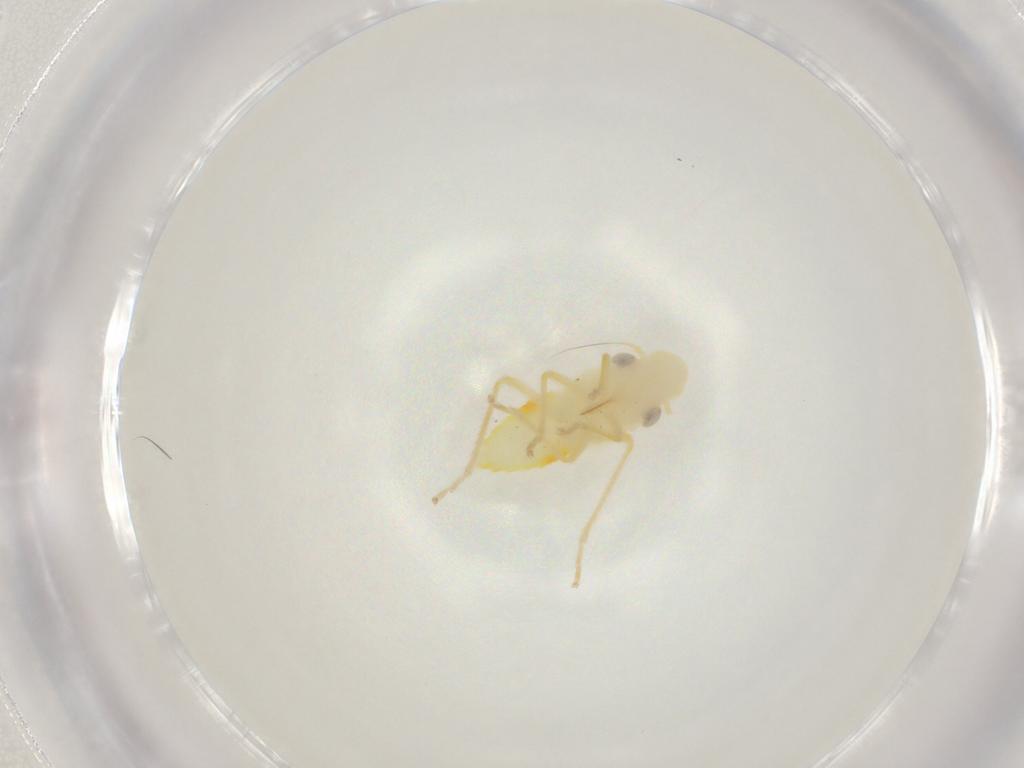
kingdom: Animalia
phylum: Arthropoda
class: Insecta
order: Hemiptera
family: Cicadellidae
